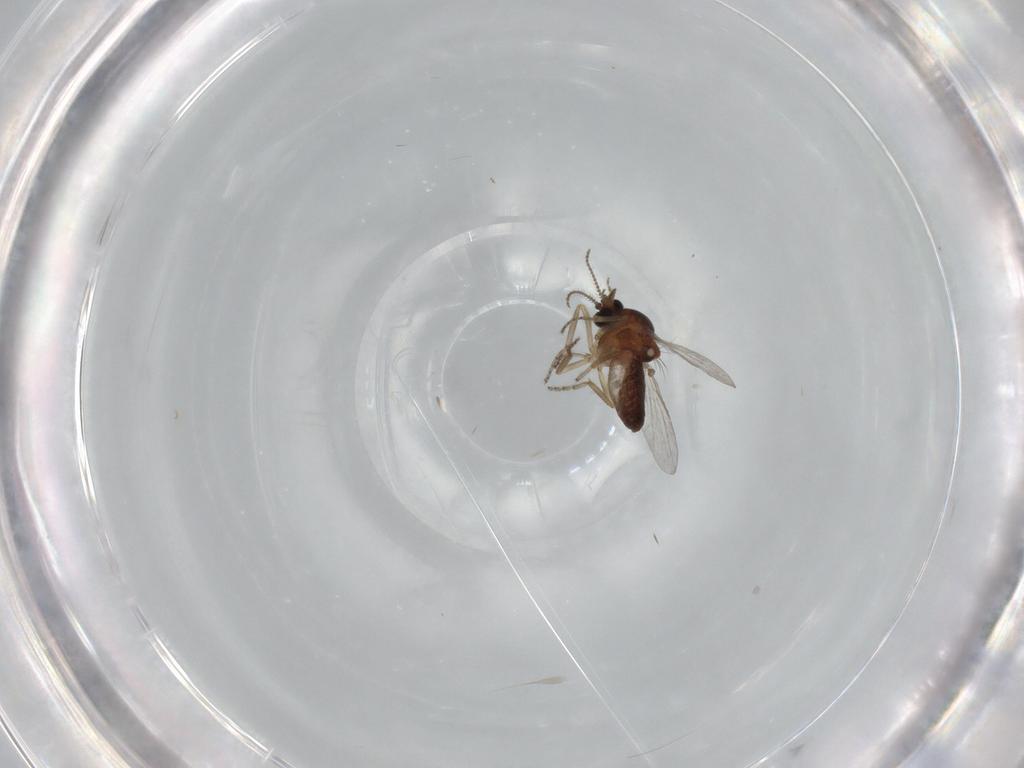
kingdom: Animalia
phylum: Arthropoda
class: Insecta
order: Diptera
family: Ceratopogonidae
